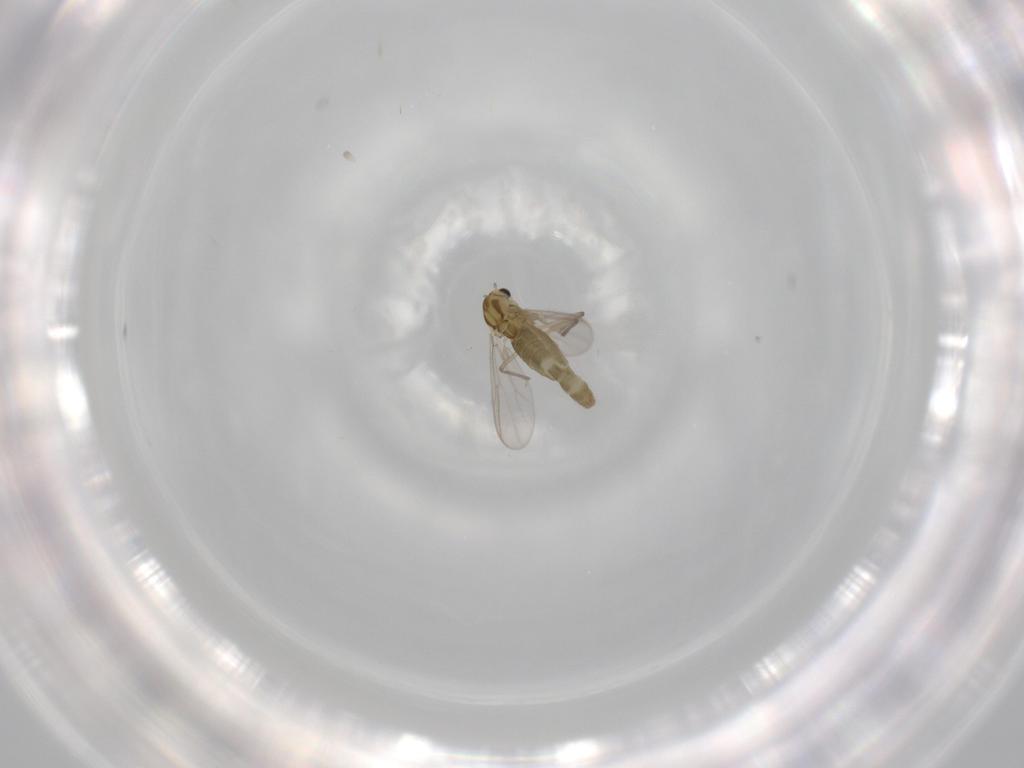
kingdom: Animalia
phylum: Arthropoda
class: Insecta
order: Diptera
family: Chironomidae
